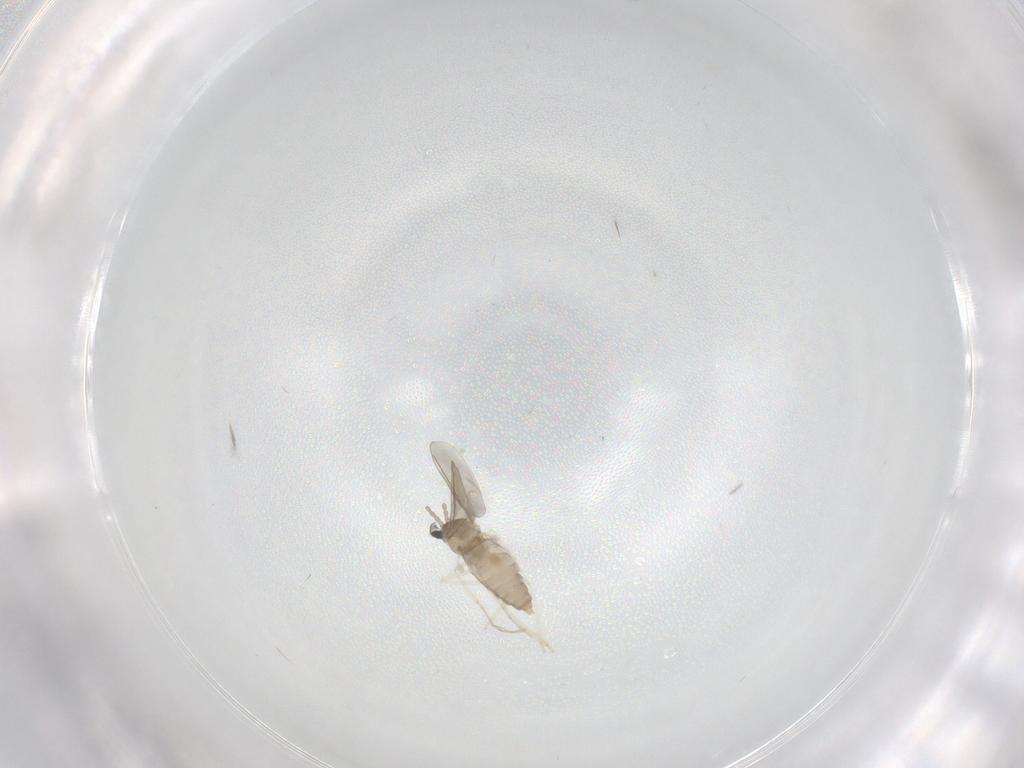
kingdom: Animalia
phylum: Arthropoda
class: Insecta
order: Diptera
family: Cecidomyiidae
